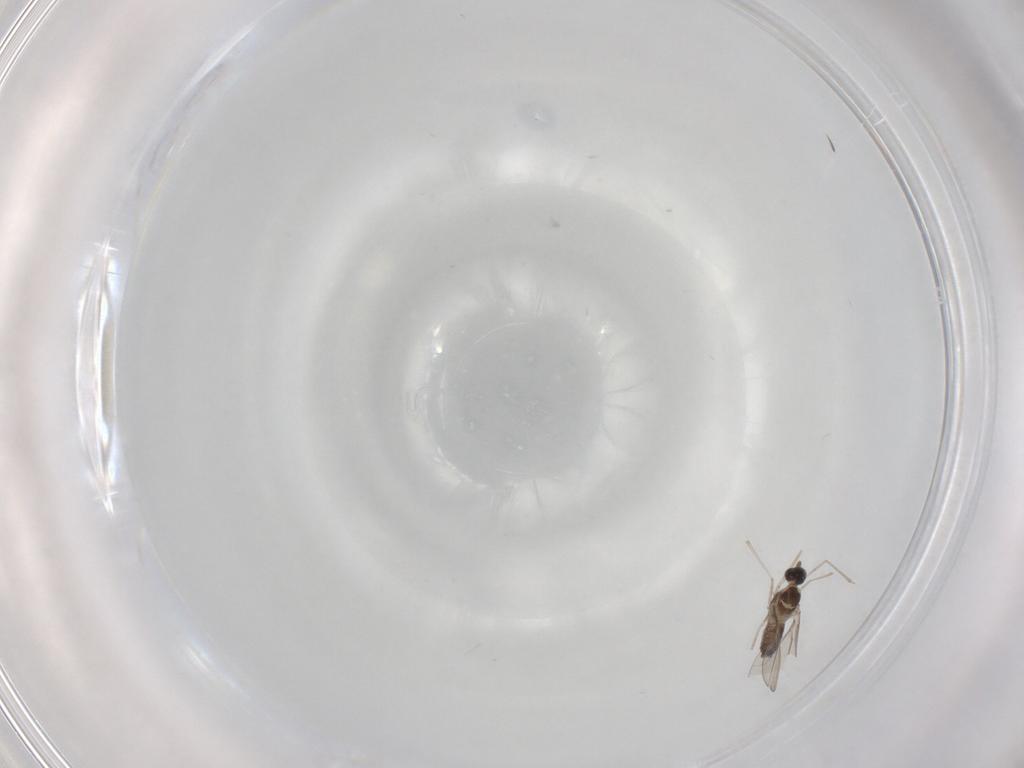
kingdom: Animalia
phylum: Arthropoda
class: Insecta
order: Diptera
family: Cecidomyiidae
